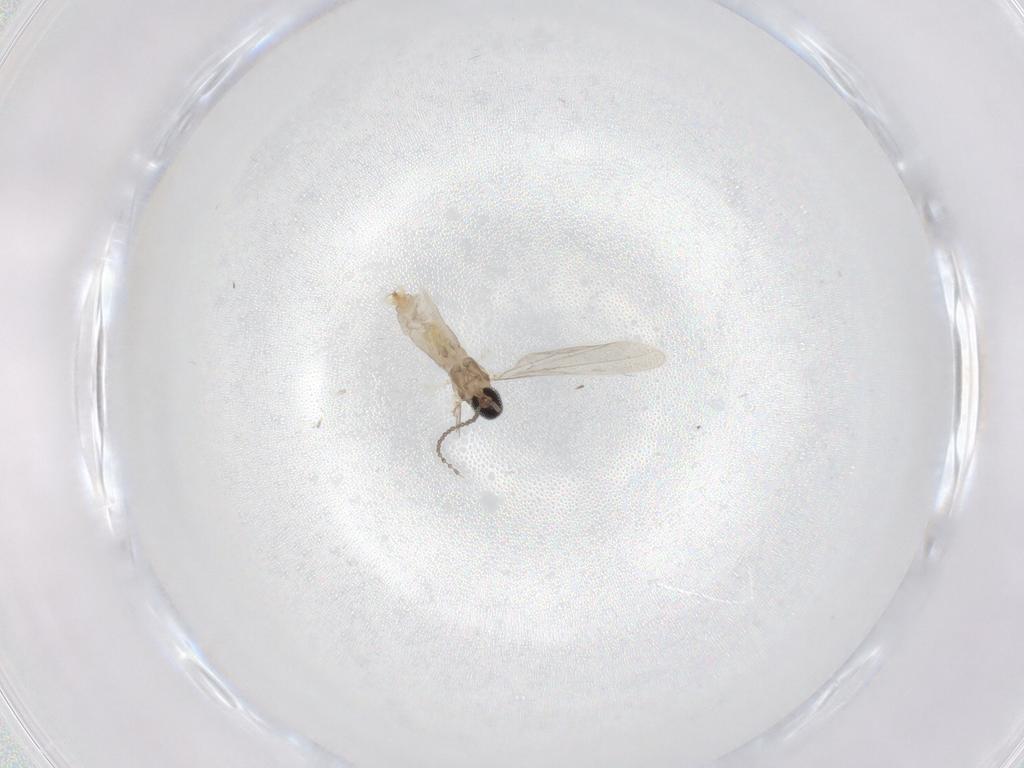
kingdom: Animalia
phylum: Arthropoda
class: Insecta
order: Diptera
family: Cecidomyiidae
